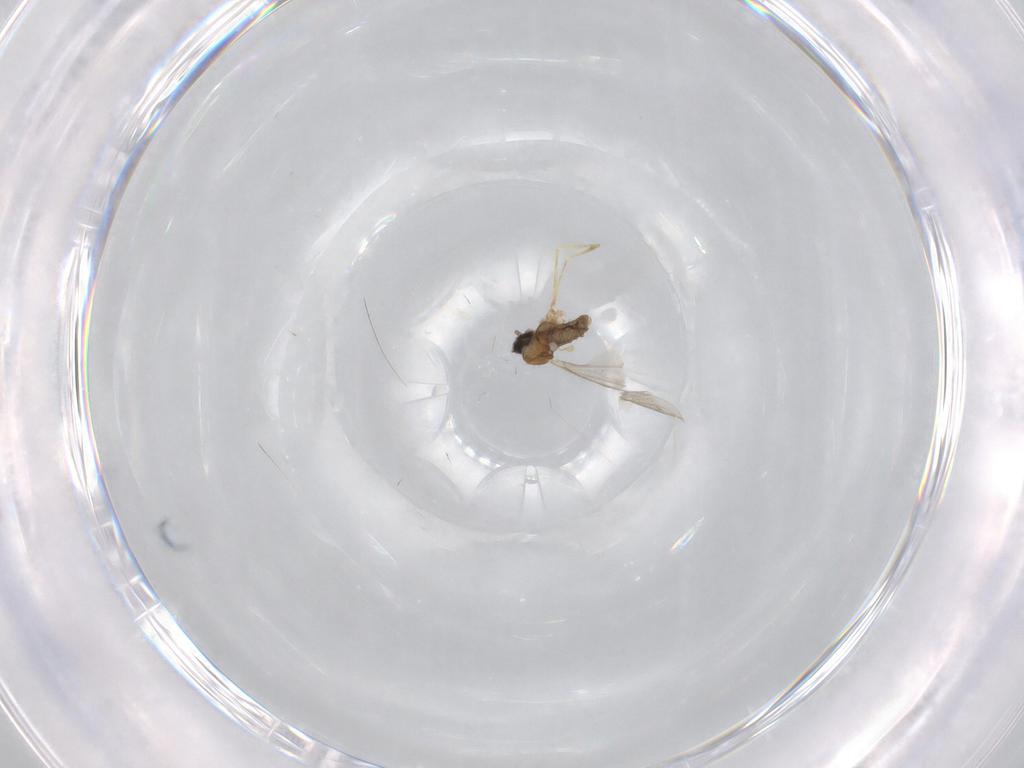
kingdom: Animalia
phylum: Arthropoda
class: Insecta
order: Diptera
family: Cecidomyiidae
